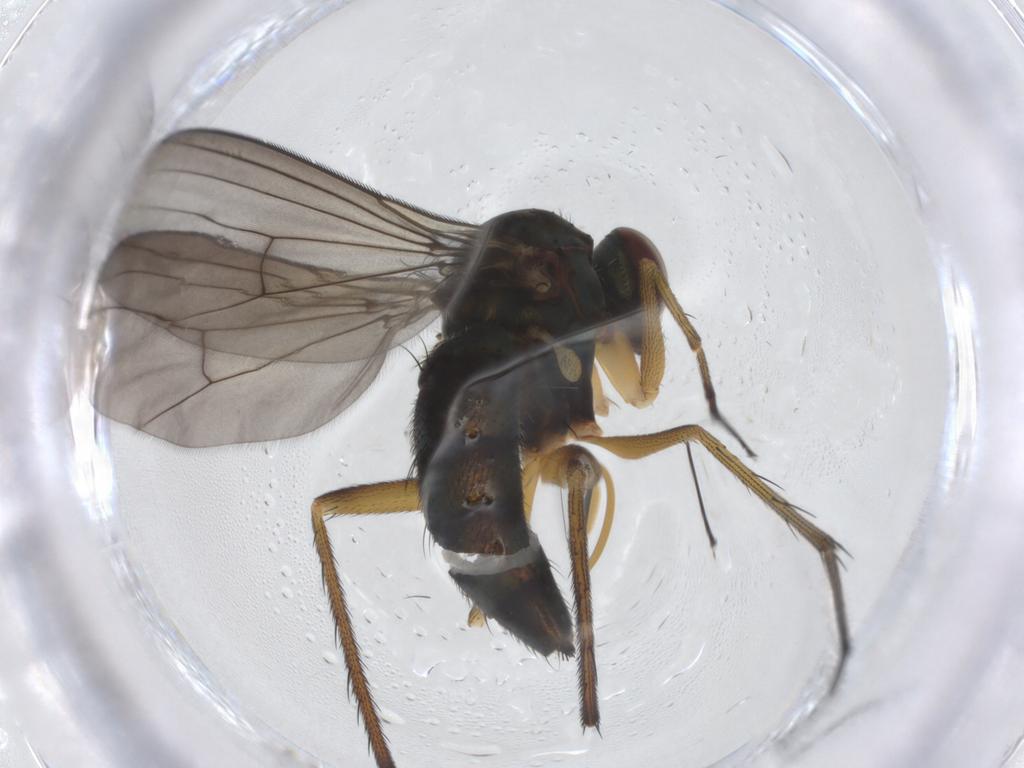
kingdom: Animalia
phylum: Arthropoda
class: Insecta
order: Diptera
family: Dolichopodidae
